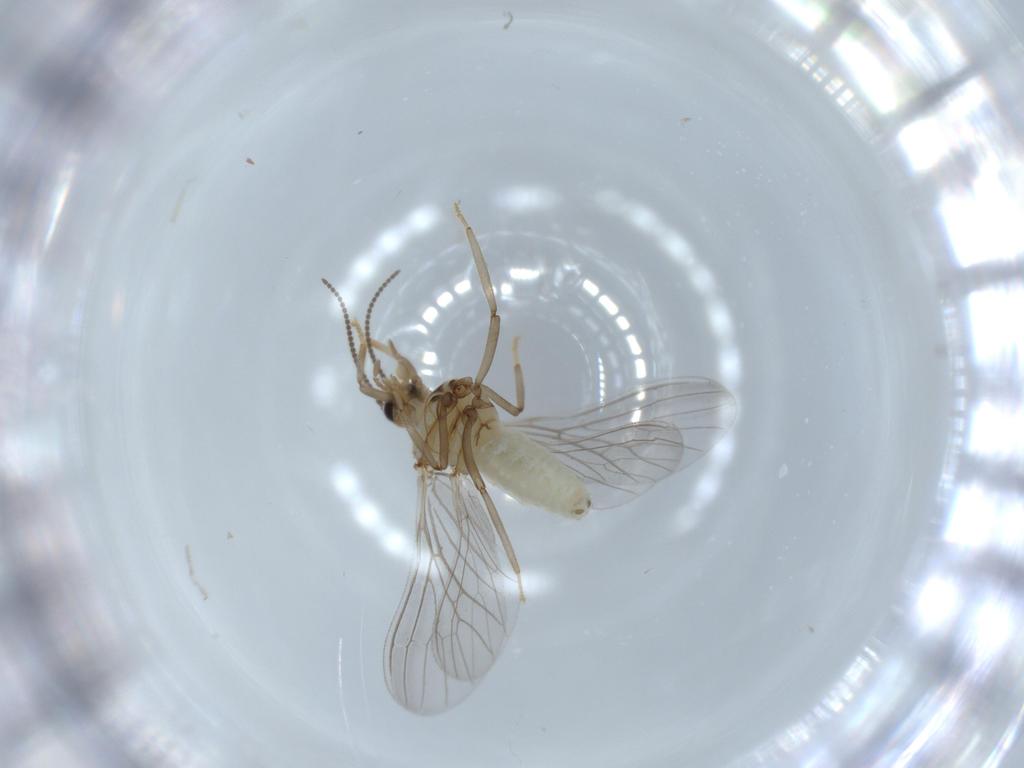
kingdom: Animalia
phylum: Arthropoda
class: Insecta
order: Neuroptera
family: Coniopterygidae
